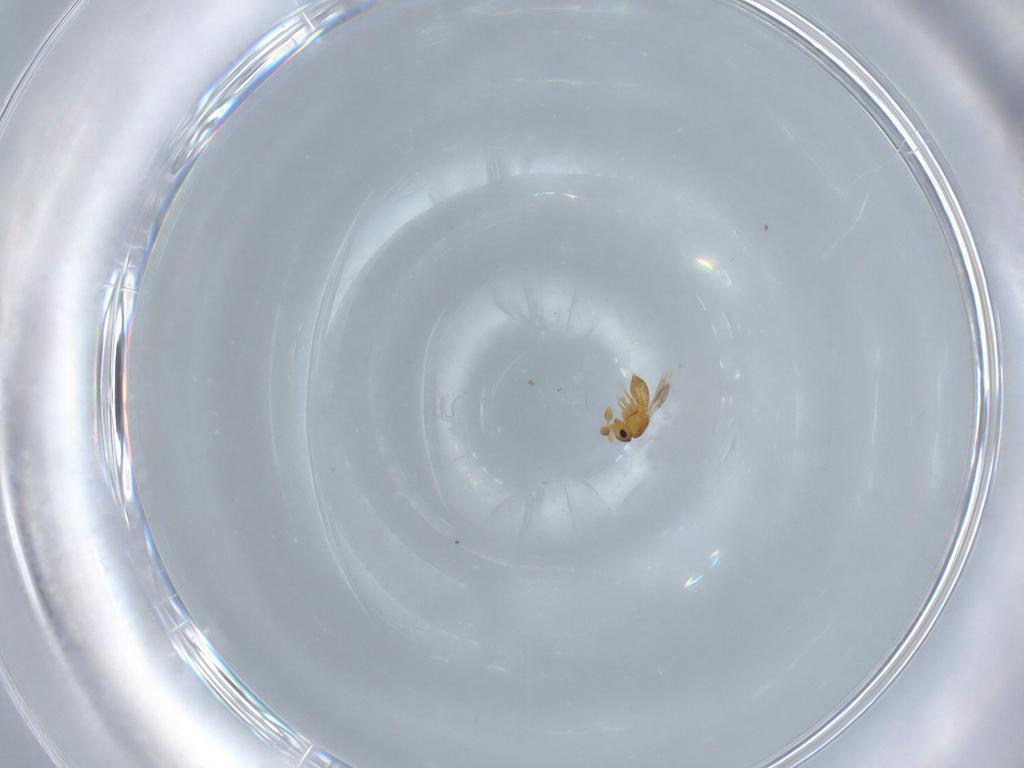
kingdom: Animalia
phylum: Arthropoda
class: Insecta
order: Hymenoptera
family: Scelionidae
